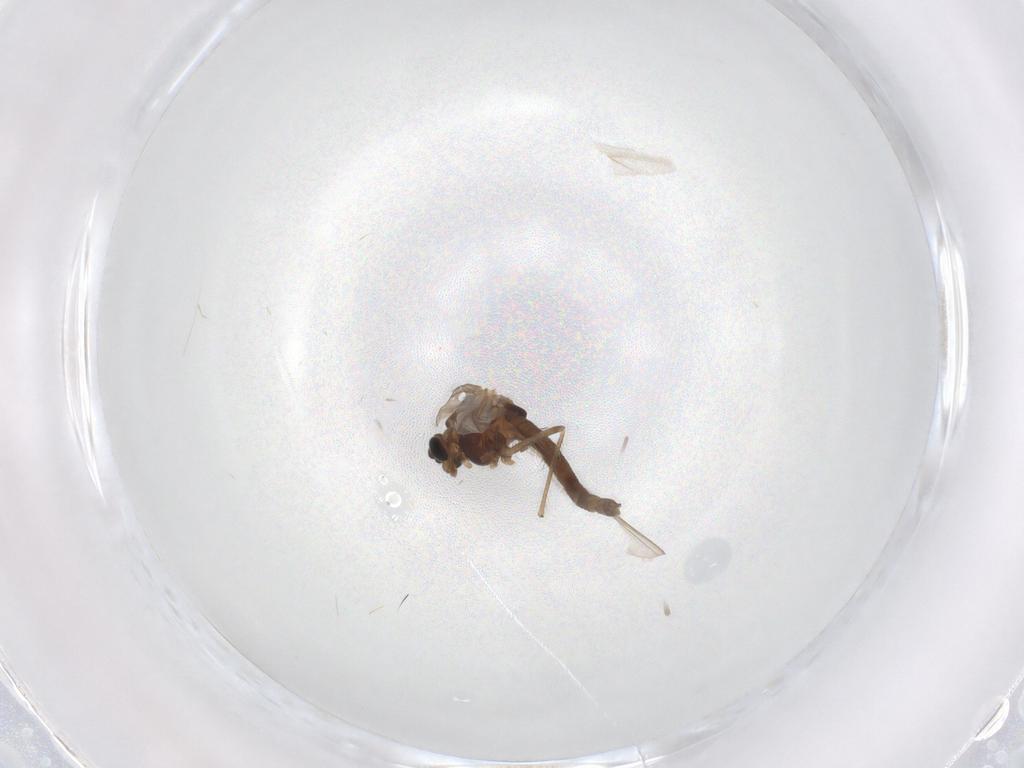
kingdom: Animalia
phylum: Arthropoda
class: Insecta
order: Diptera
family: Chironomidae
